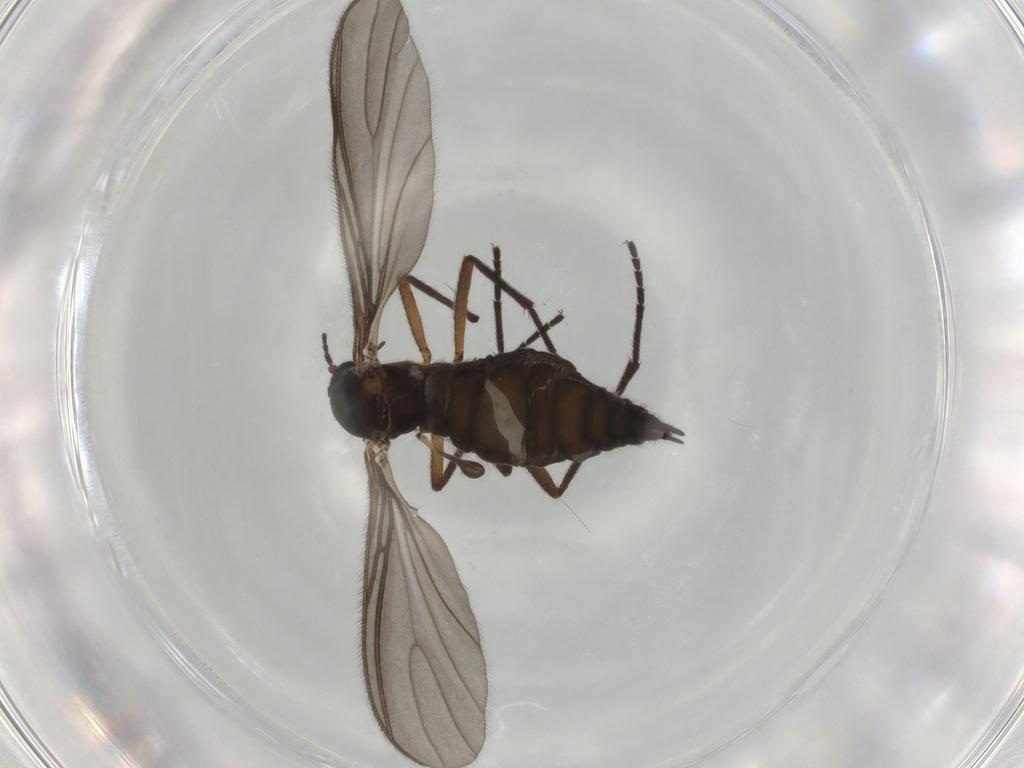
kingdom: Animalia
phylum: Arthropoda
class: Insecta
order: Diptera
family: Sciaridae
